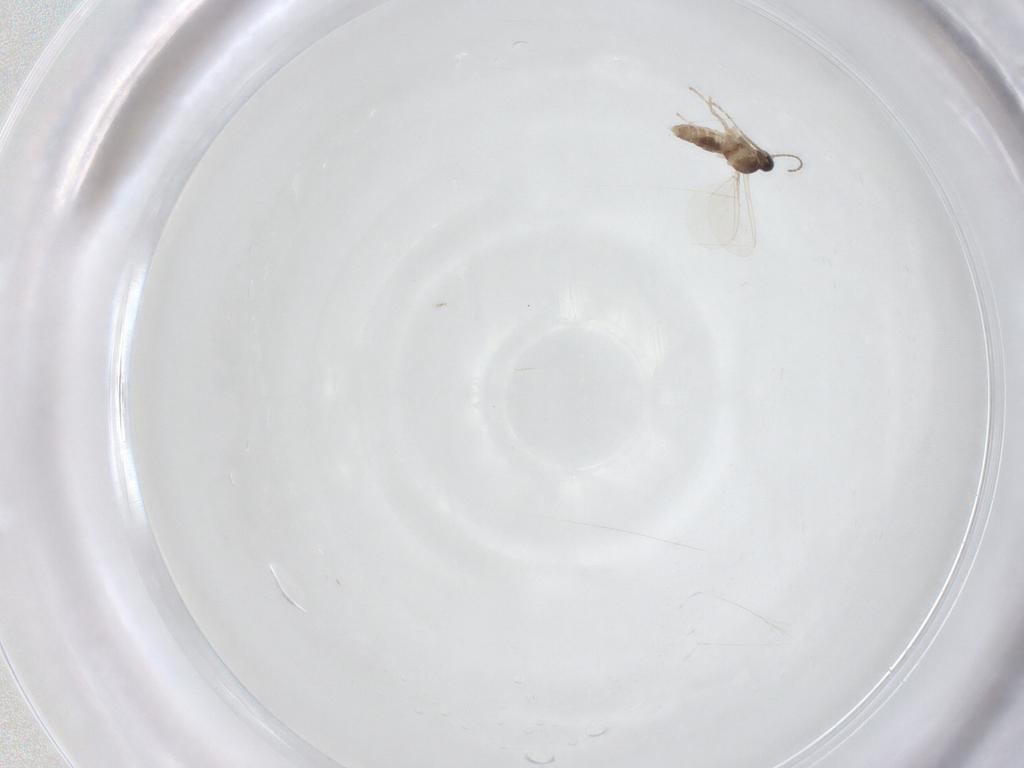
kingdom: Animalia
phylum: Arthropoda
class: Insecta
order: Diptera
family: Cecidomyiidae
